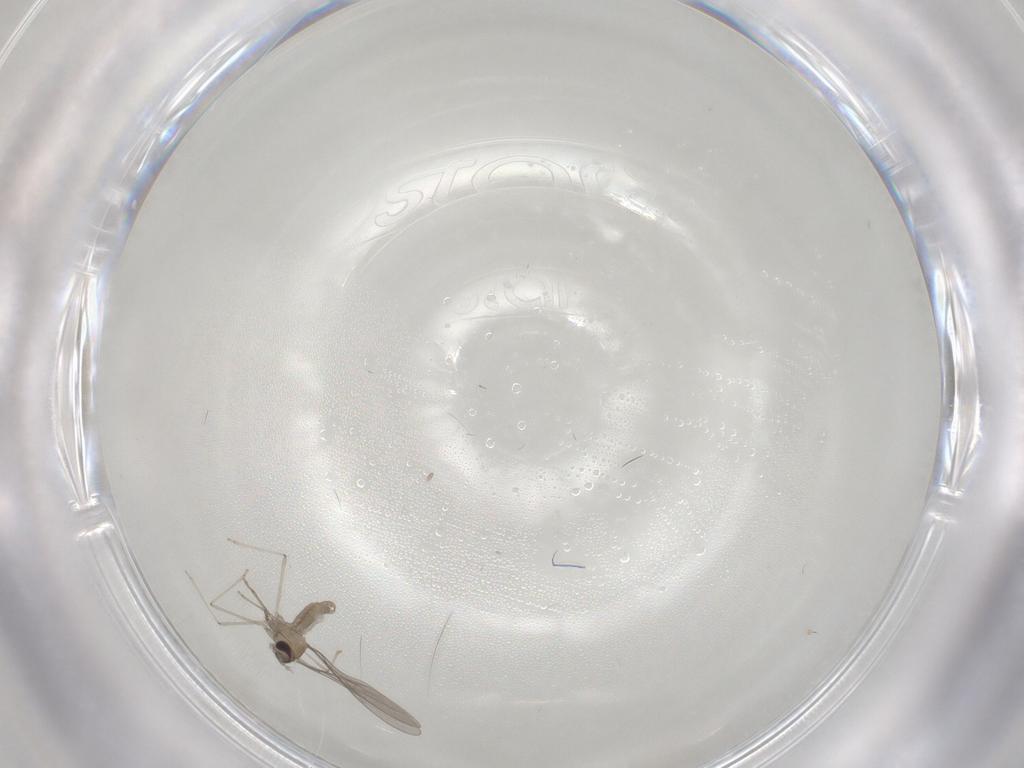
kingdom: Animalia
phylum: Arthropoda
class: Insecta
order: Diptera
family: Cecidomyiidae
